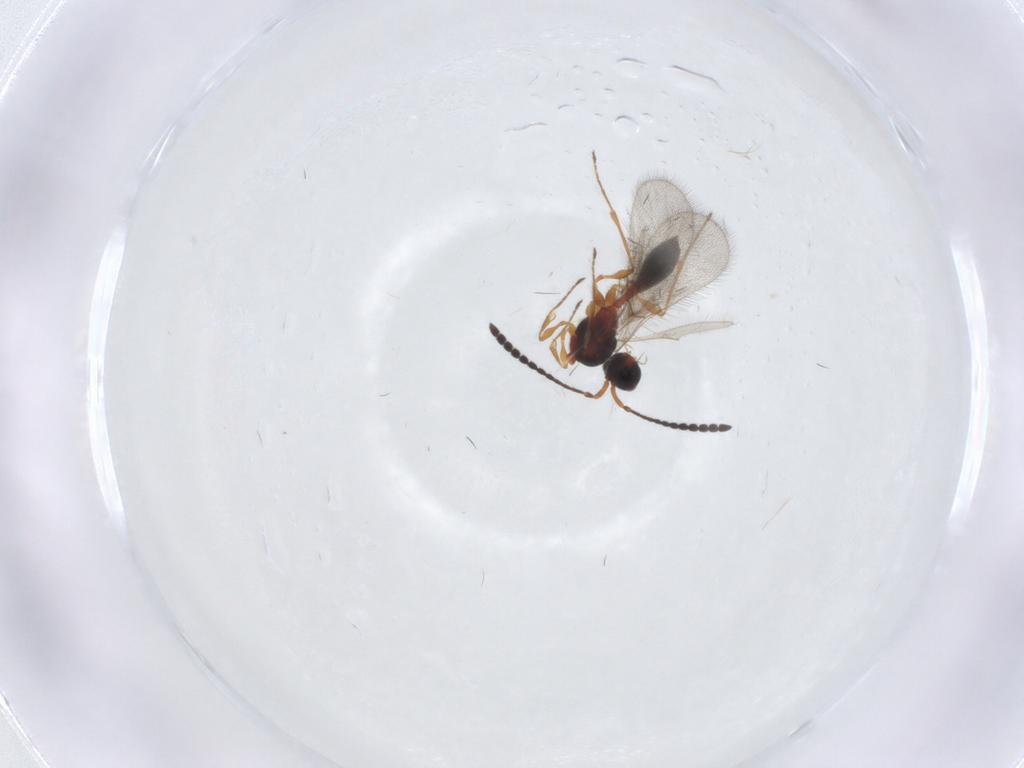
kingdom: Animalia
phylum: Arthropoda
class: Insecta
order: Hymenoptera
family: Diapriidae
